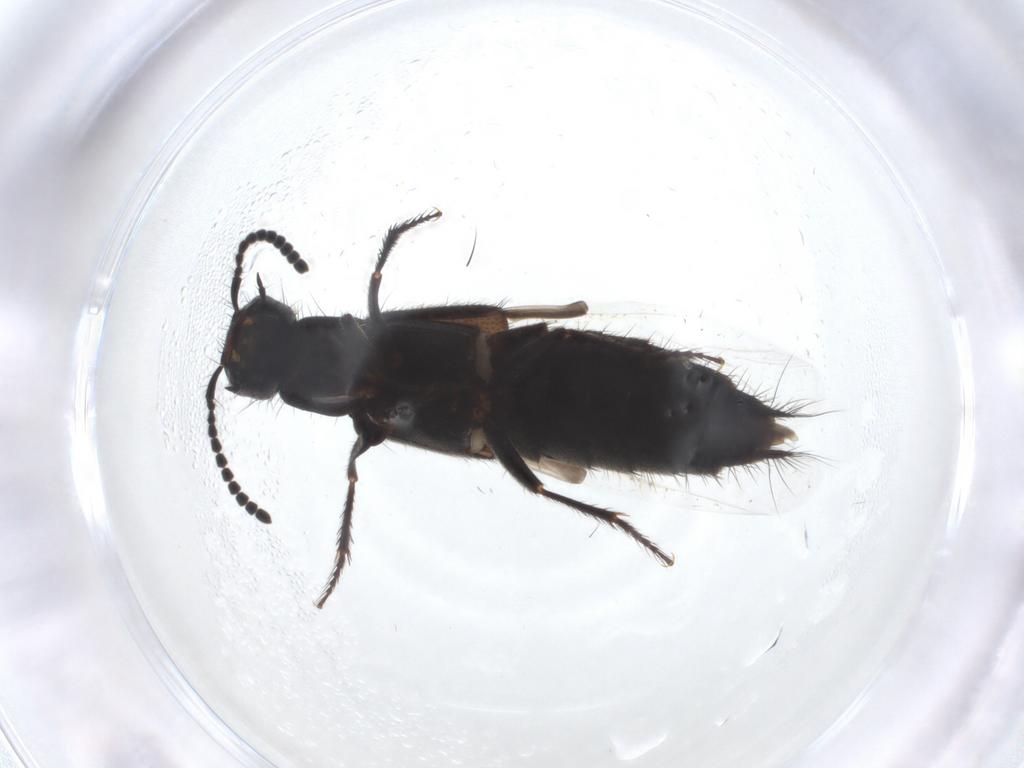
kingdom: Animalia
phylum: Arthropoda
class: Insecta
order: Coleoptera
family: Staphylinidae
